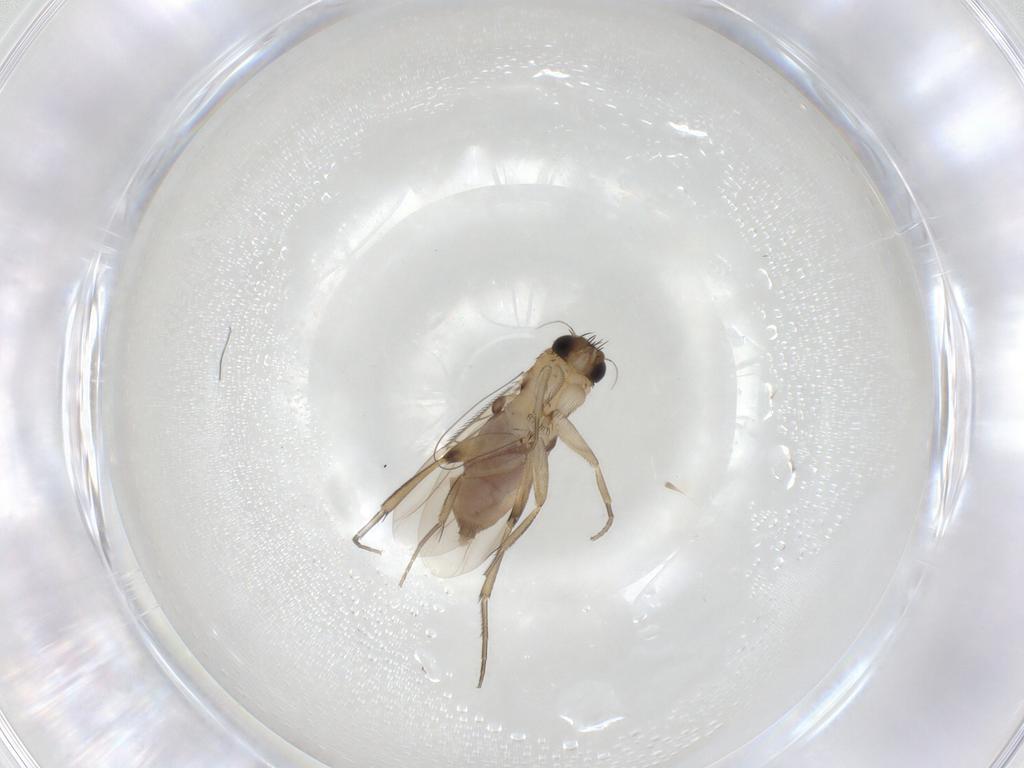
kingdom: Animalia
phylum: Arthropoda
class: Insecta
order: Diptera
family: Phoridae
